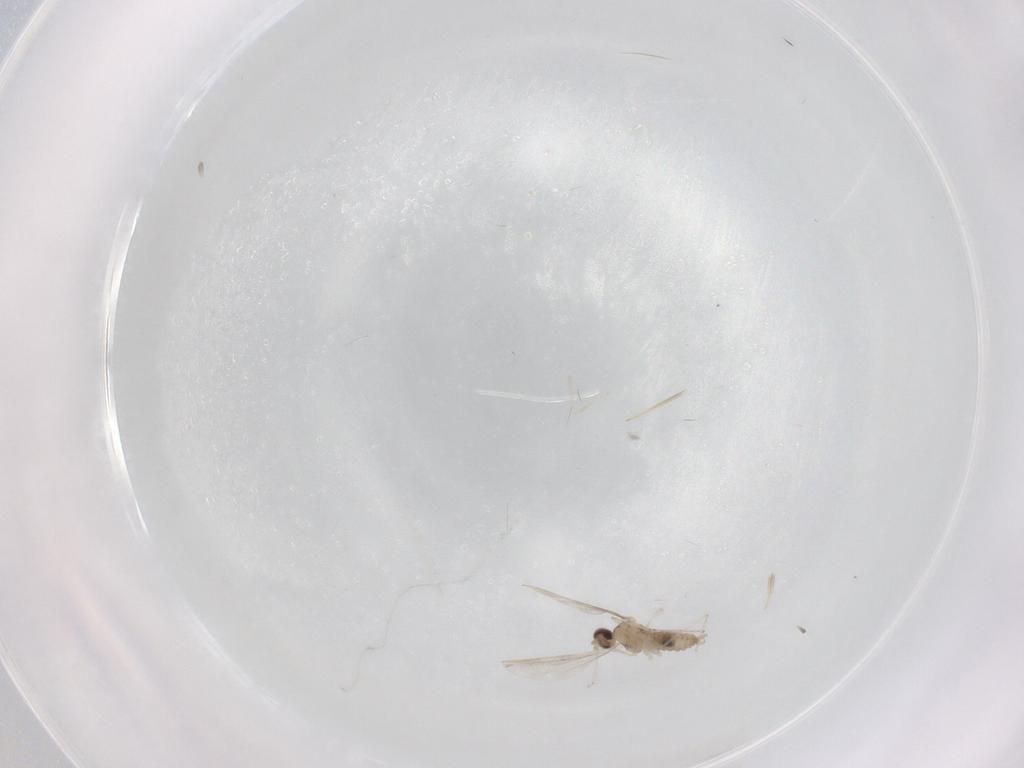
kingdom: Animalia
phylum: Arthropoda
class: Insecta
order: Diptera
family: Cecidomyiidae
